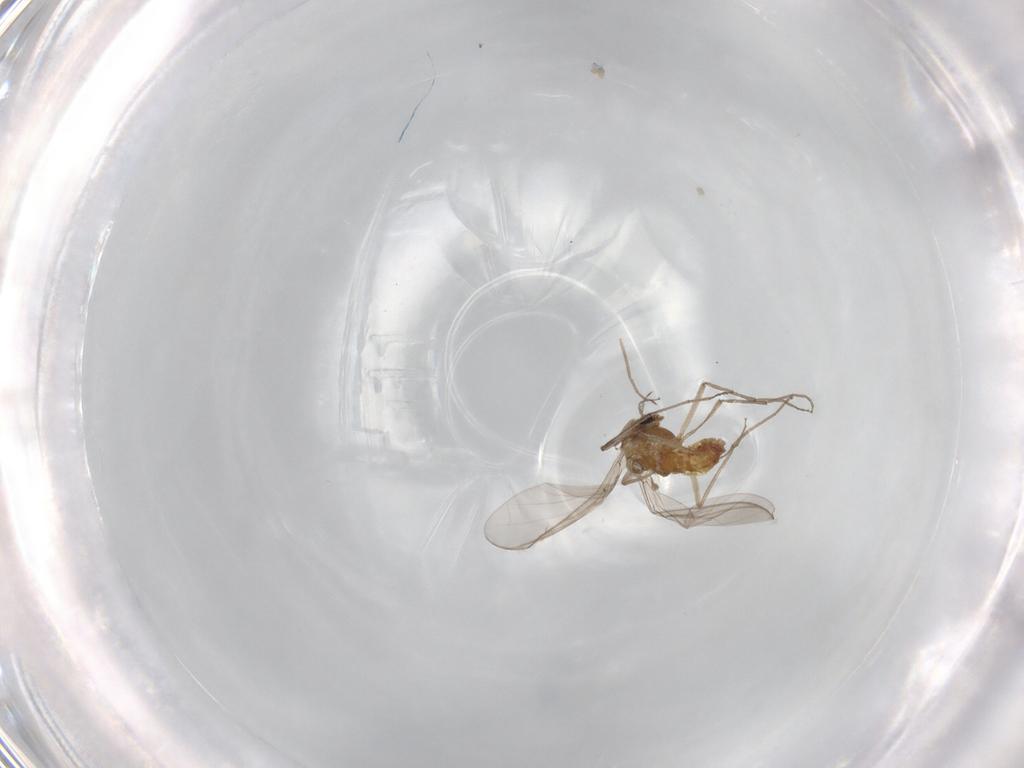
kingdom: Animalia
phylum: Arthropoda
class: Insecta
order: Diptera
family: Chironomidae
